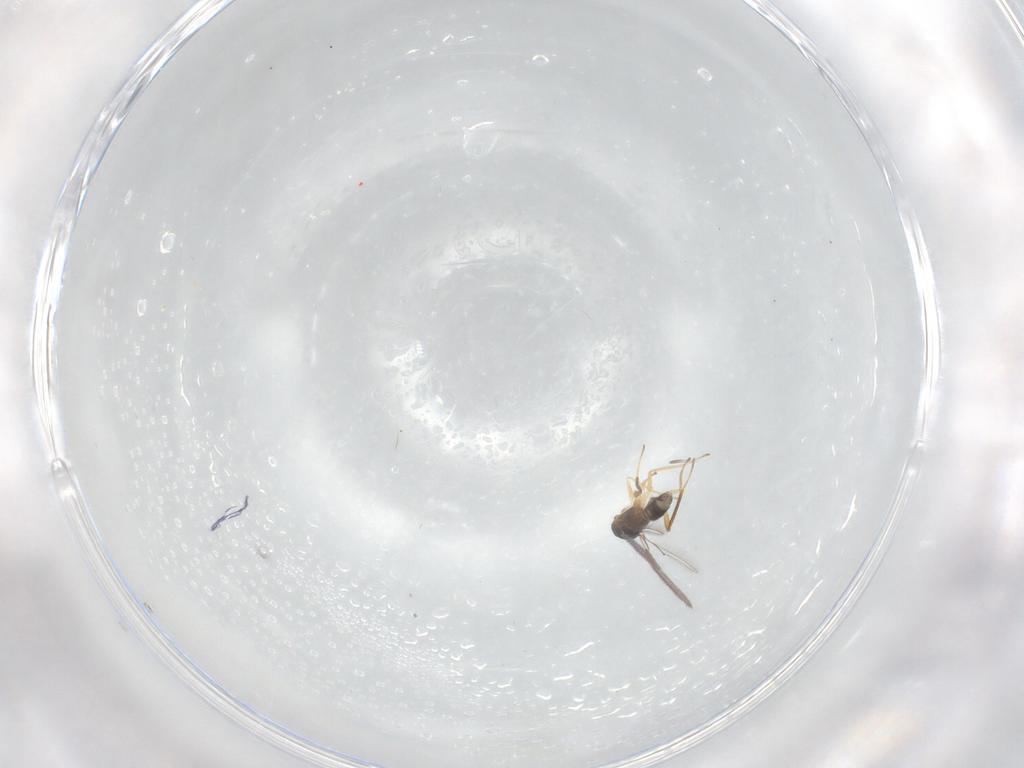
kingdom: Animalia
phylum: Arthropoda
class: Insecta
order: Hymenoptera
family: Mymaridae
